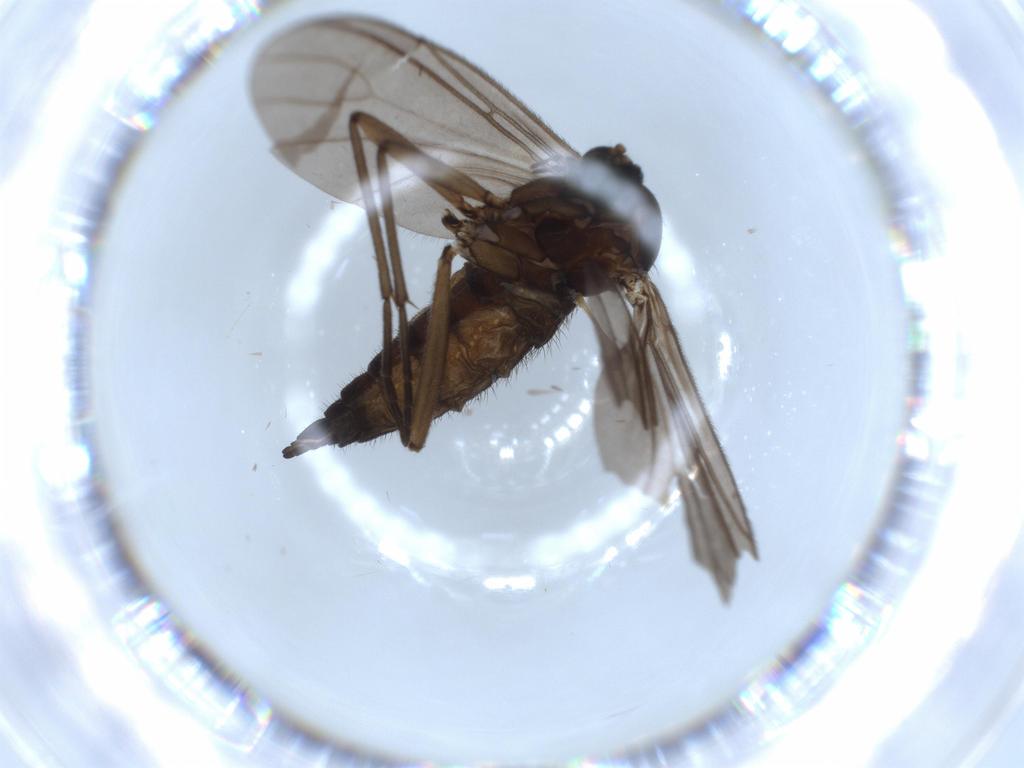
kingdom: Animalia
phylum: Arthropoda
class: Insecta
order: Diptera
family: Sciaridae
